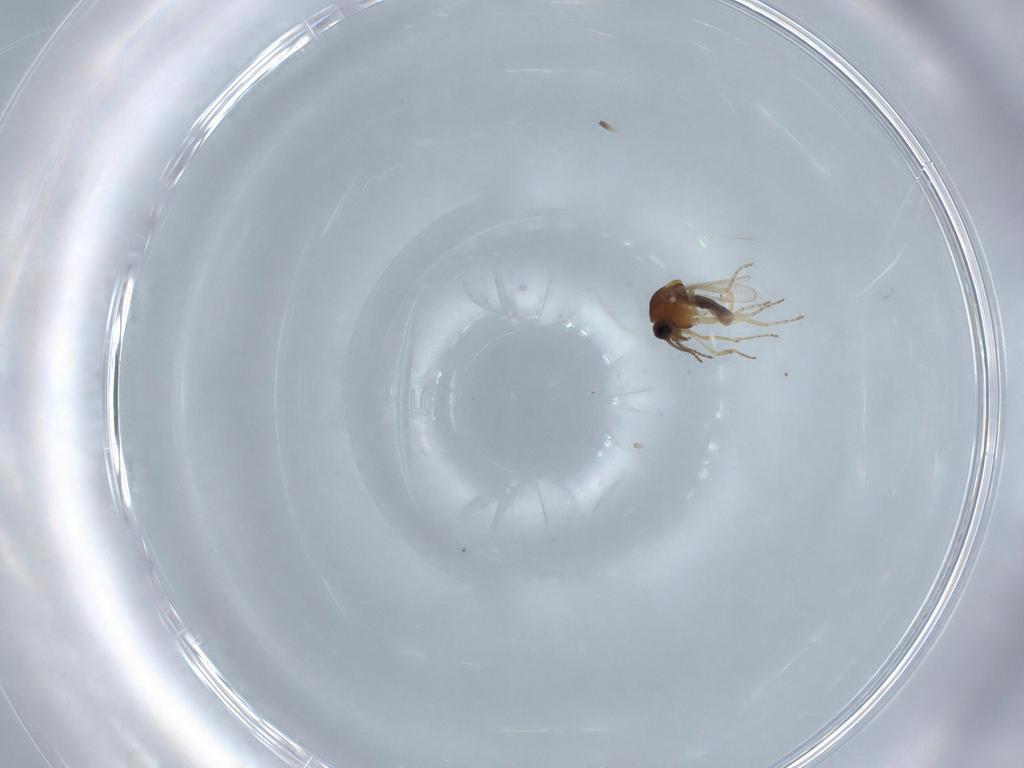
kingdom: Animalia
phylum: Arthropoda
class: Insecta
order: Diptera
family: Ceratopogonidae
